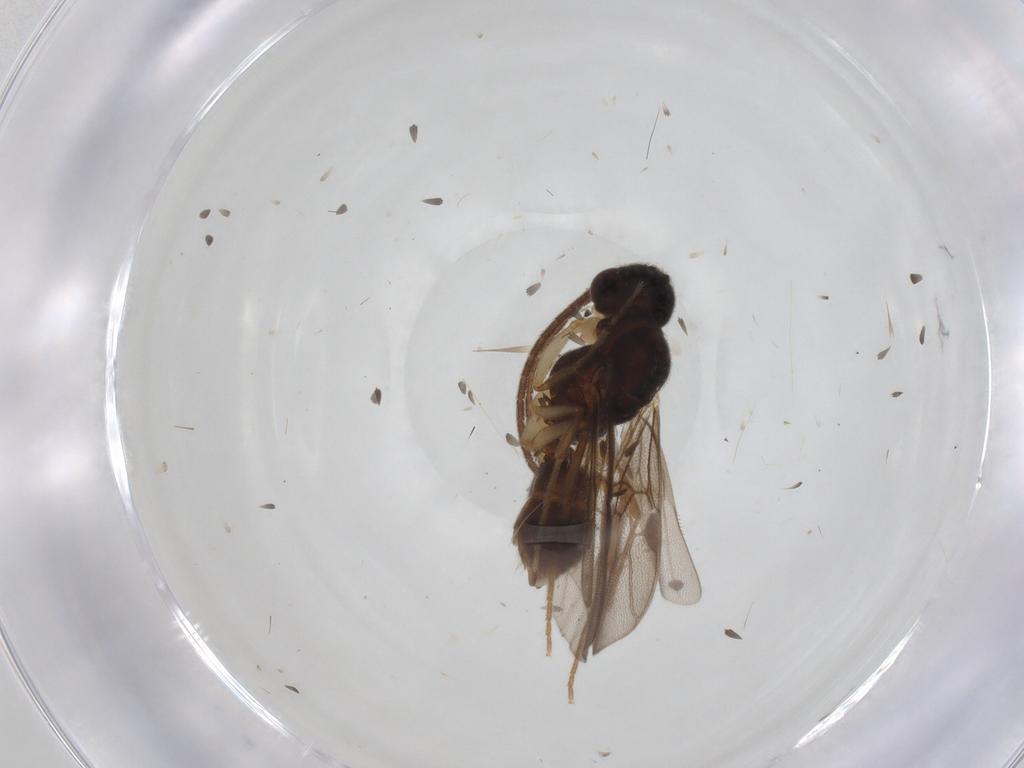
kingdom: Animalia
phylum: Arthropoda
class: Insecta
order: Hymenoptera
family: Formicidae
